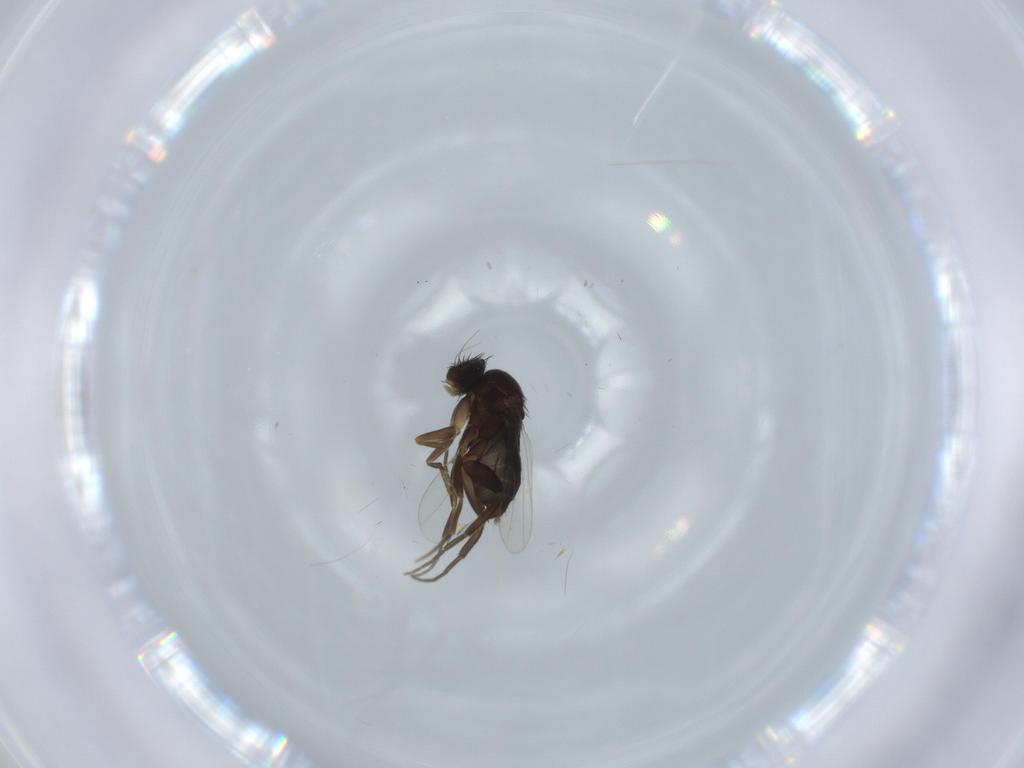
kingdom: Animalia
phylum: Arthropoda
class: Insecta
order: Diptera
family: Phoridae
